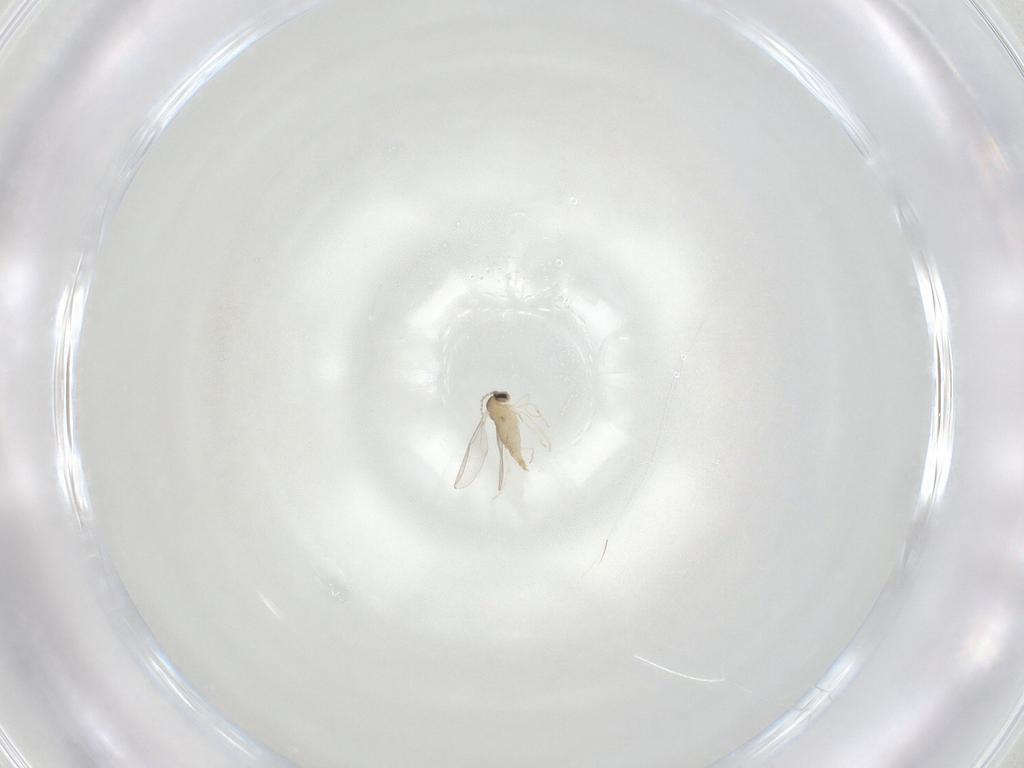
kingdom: Animalia
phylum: Arthropoda
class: Insecta
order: Diptera
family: Cecidomyiidae
